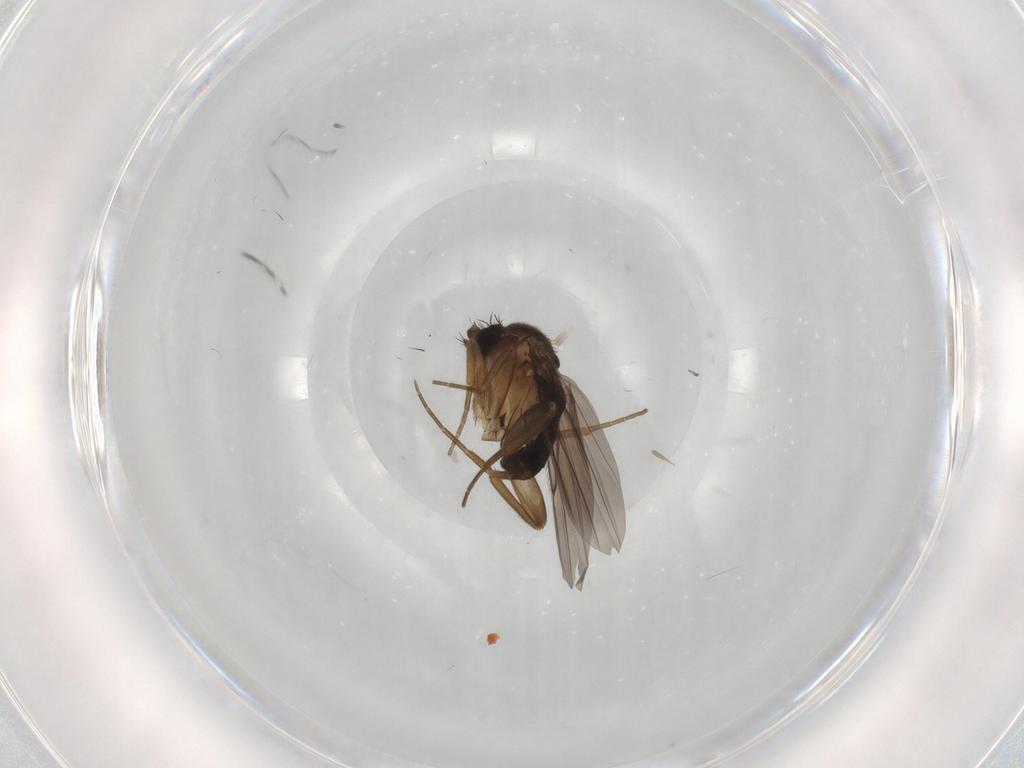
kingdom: Animalia
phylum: Arthropoda
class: Insecta
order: Diptera
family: Phoridae
